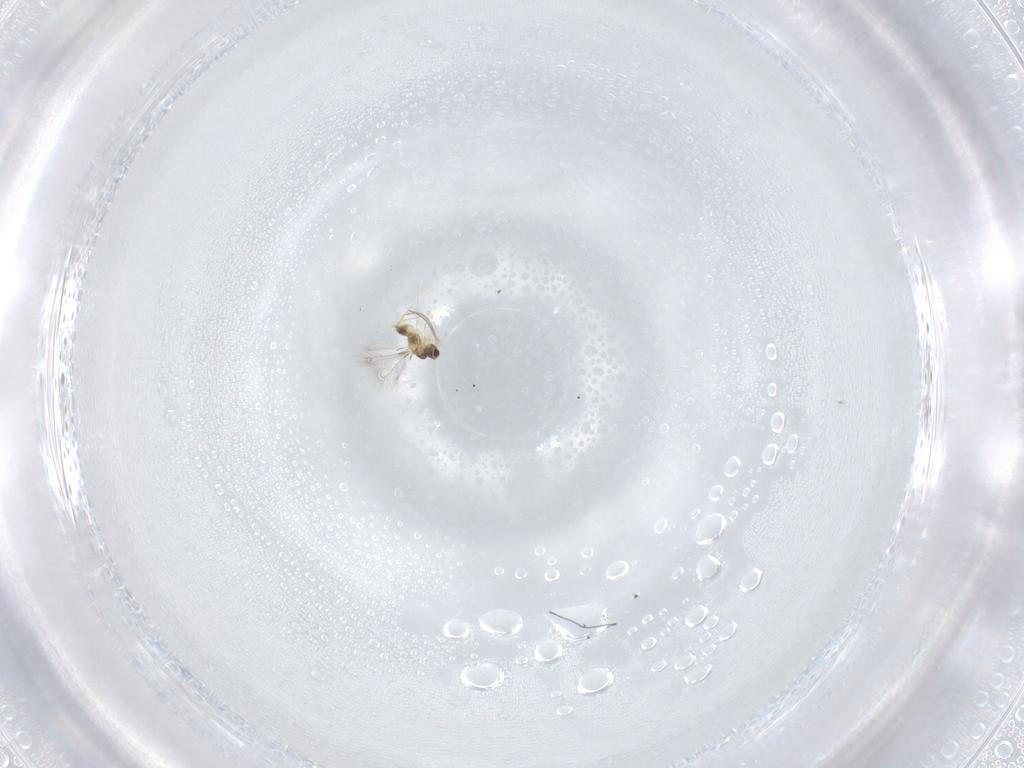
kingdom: Animalia
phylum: Arthropoda
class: Insecta
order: Hymenoptera
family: Mymaridae
